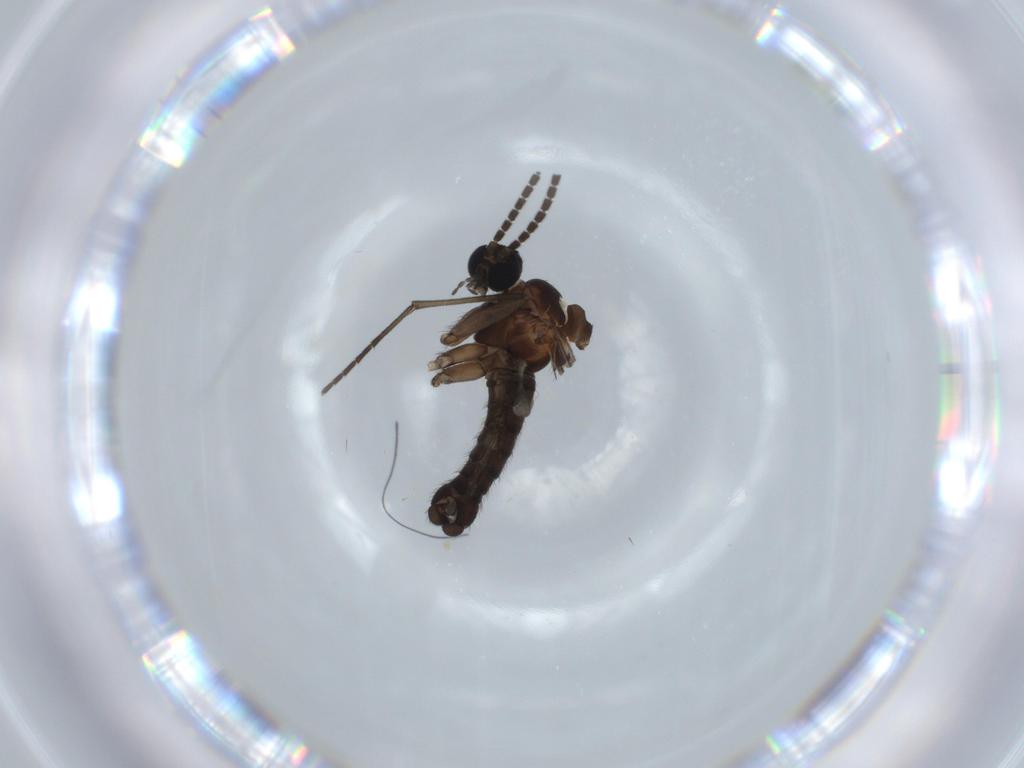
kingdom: Animalia
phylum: Arthropoda
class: Insecta
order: Diptera
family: Sciaridae
